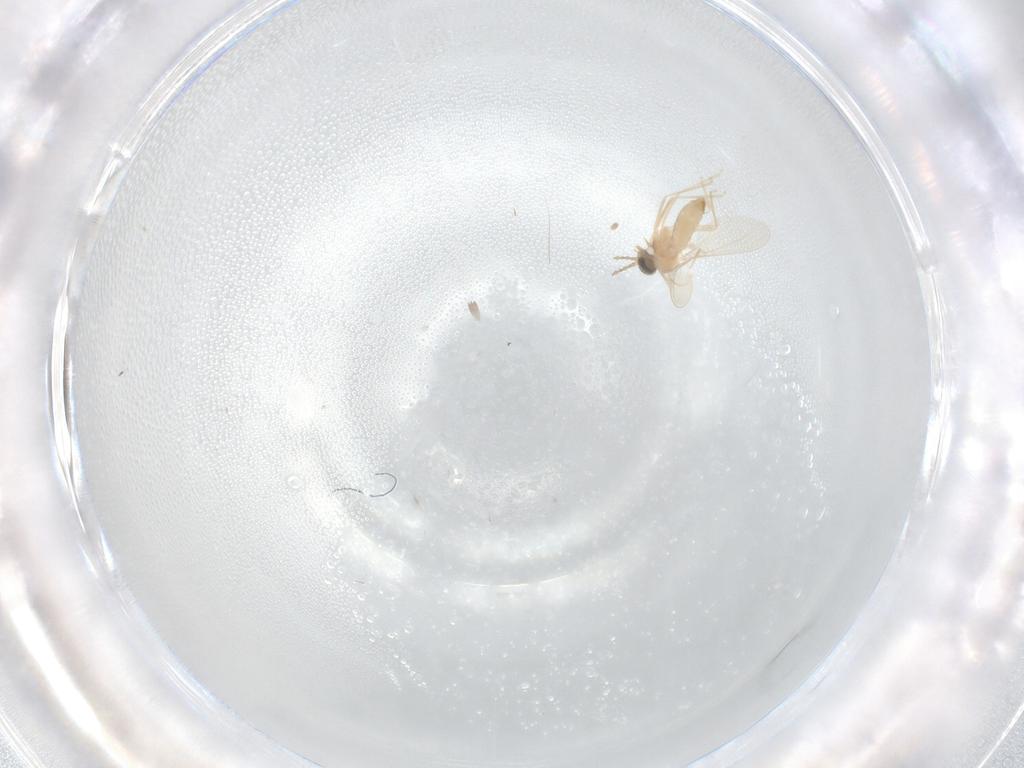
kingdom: Animalia
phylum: Arthropoda
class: Insecta
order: Diptera
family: Cecidomyiidae
